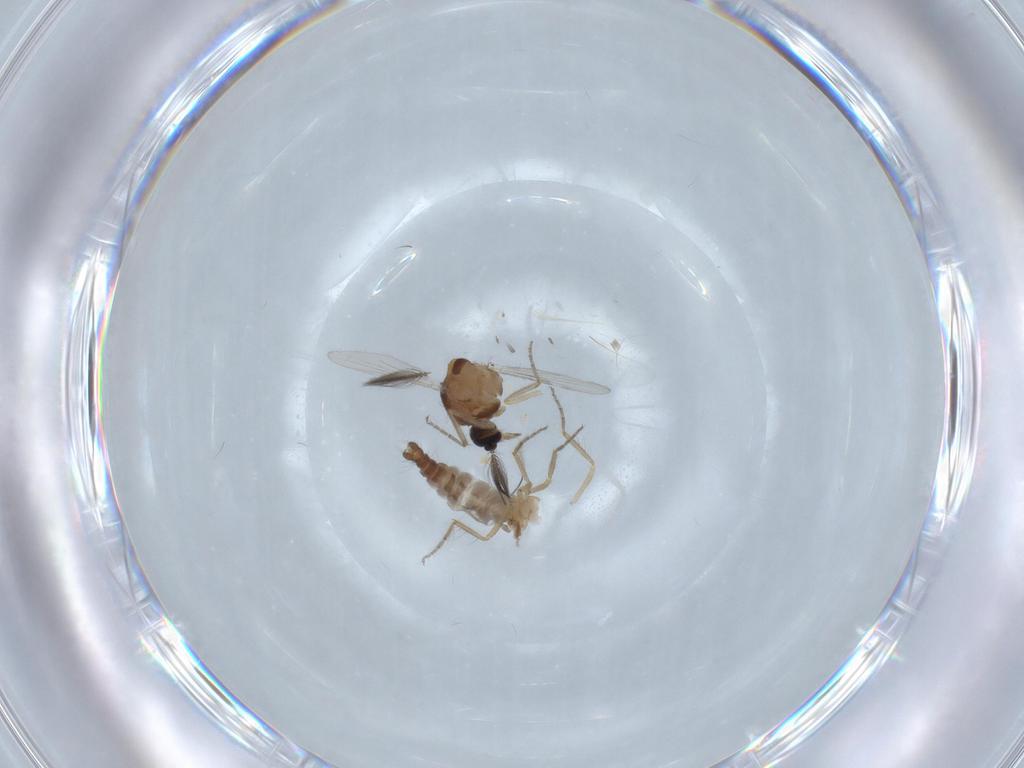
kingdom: Animalia
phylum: Arthropoda
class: Insecta
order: Diptera
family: Ceratopogonidae
